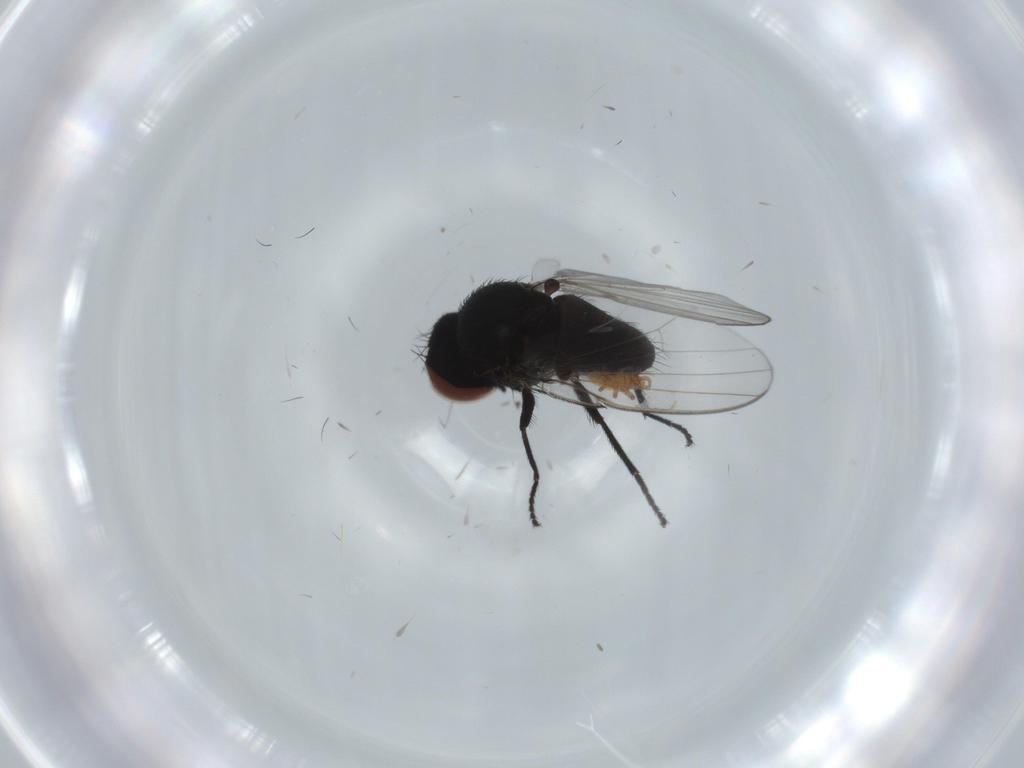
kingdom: Animalia
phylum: Arthropoda
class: Insecta
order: Diptera
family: Milichiidae
